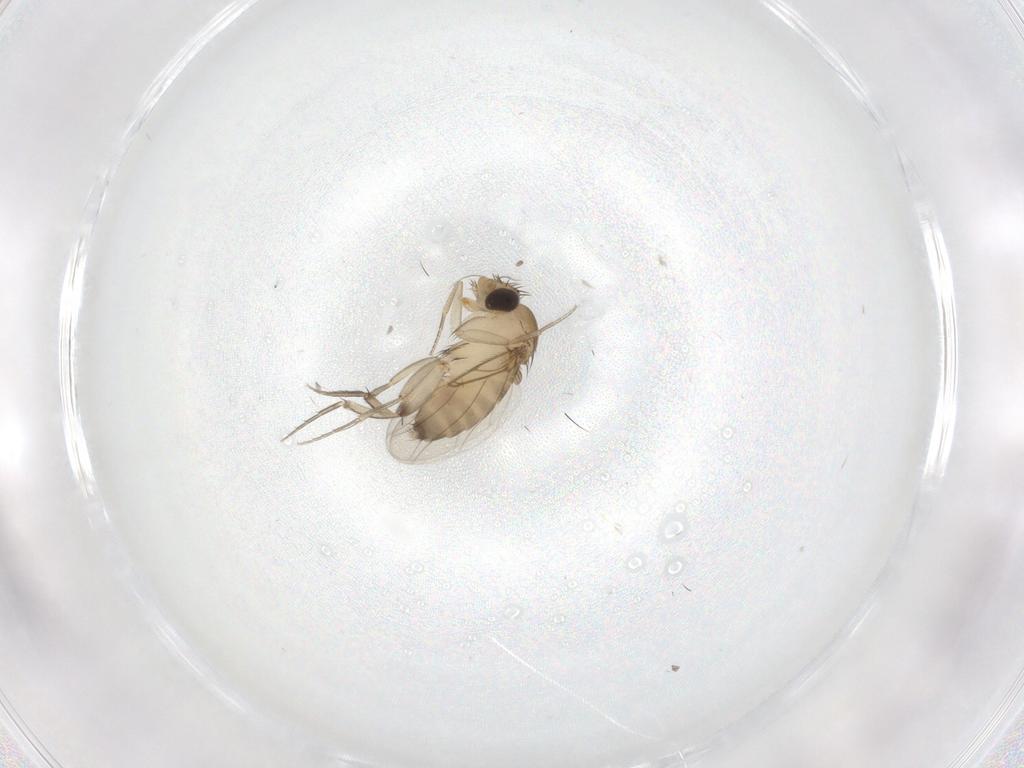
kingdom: Animalia
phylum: Arthropoda
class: Insecta
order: Diptera
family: Phoridae
